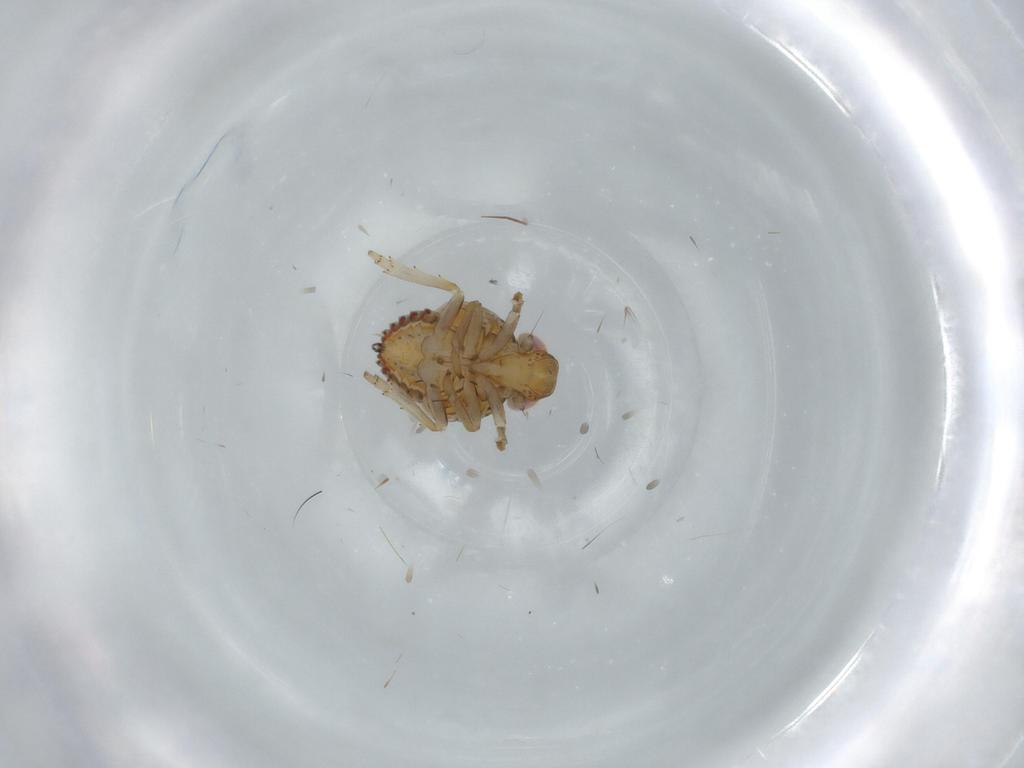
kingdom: Animalia
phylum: Arthropoda
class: Insecta
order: Hemiptera
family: Issidae
